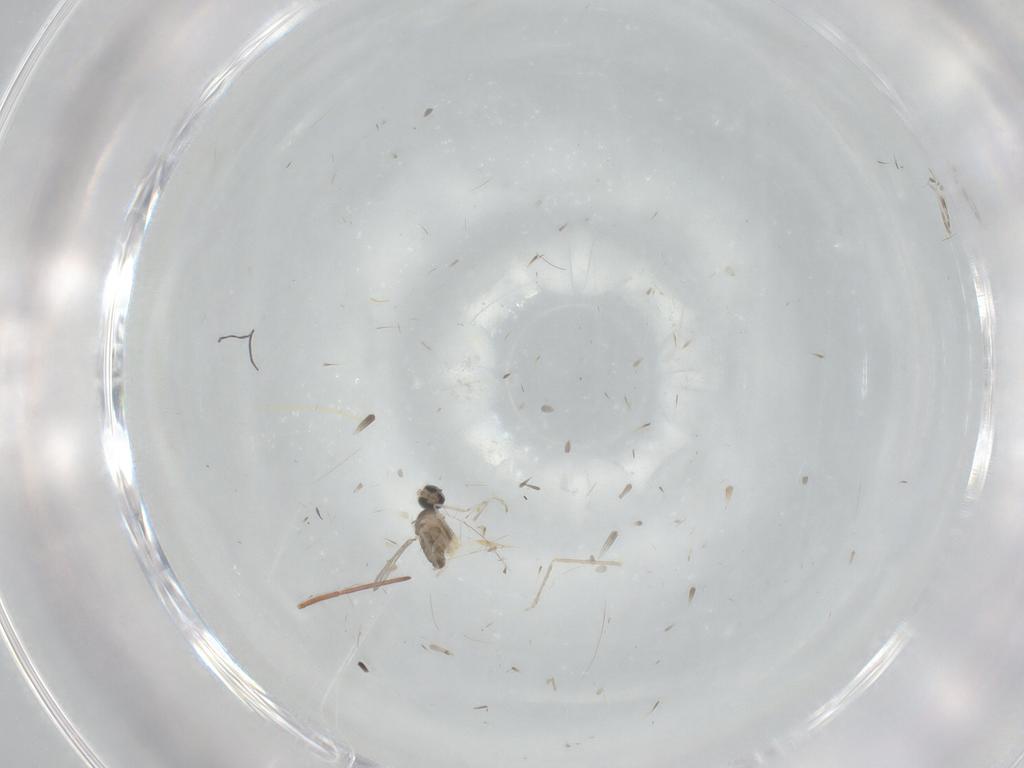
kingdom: Animalia
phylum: Arthropoda
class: Insecta
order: Diptera
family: Cecidomyiidae
